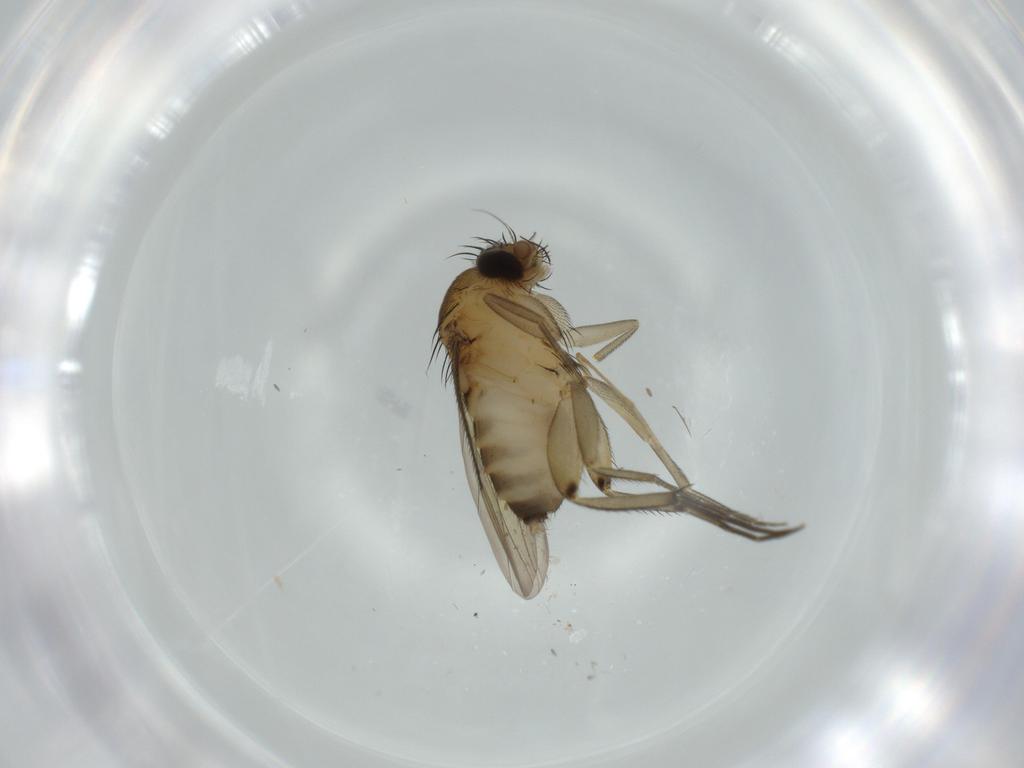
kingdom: Animalia
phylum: Arthropoda
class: Insecta
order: Diptera
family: Phoridae
